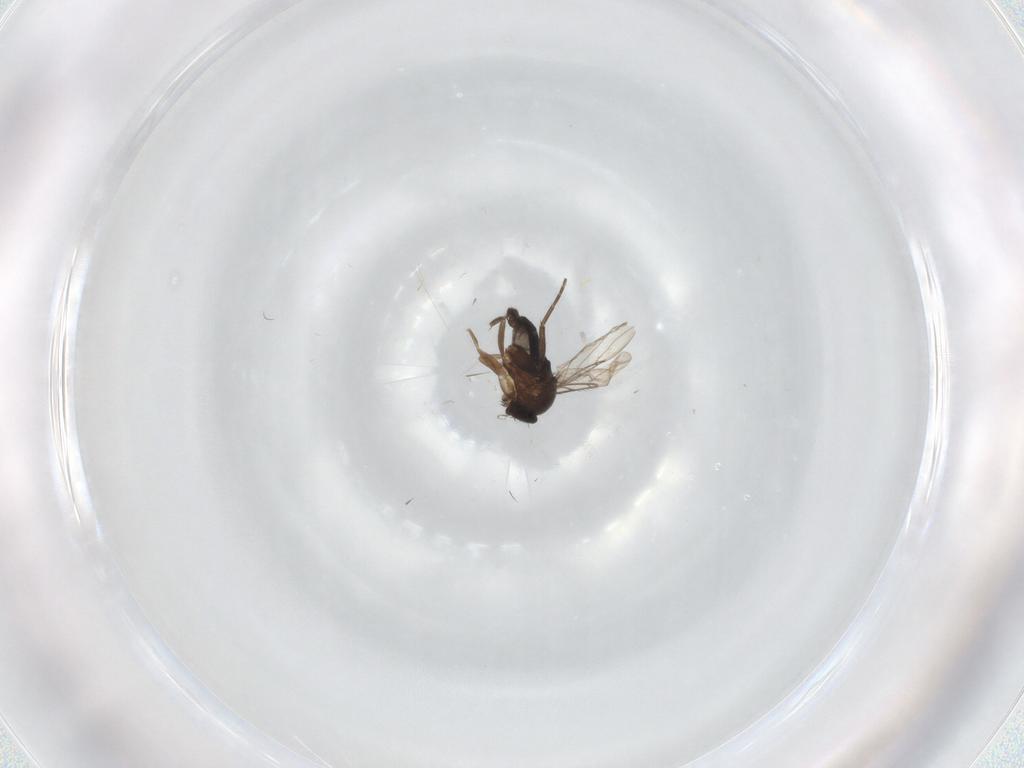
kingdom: Animalia
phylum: Arthropoda
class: Insecta
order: Diptera
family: Phoridae
